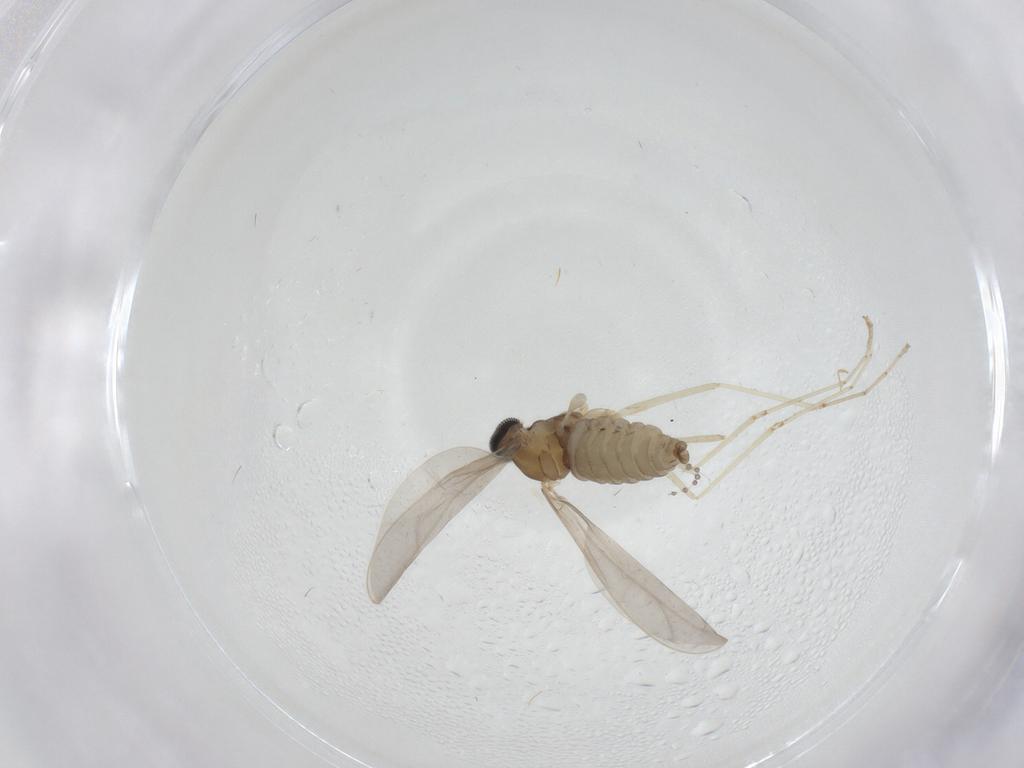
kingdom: Animalia
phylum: Arthropoda
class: Insecta
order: Diptera
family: Cecidomyiidae
